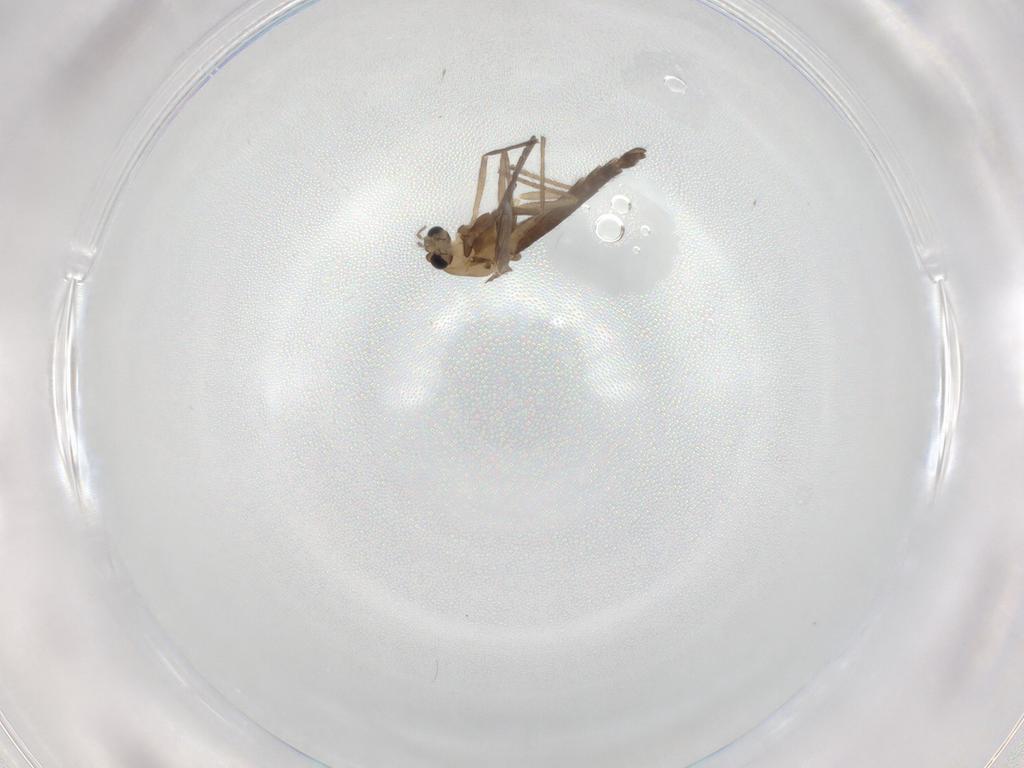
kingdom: Animalia
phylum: Arthropoda
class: Insecta
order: Diptera
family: Chironomidae
